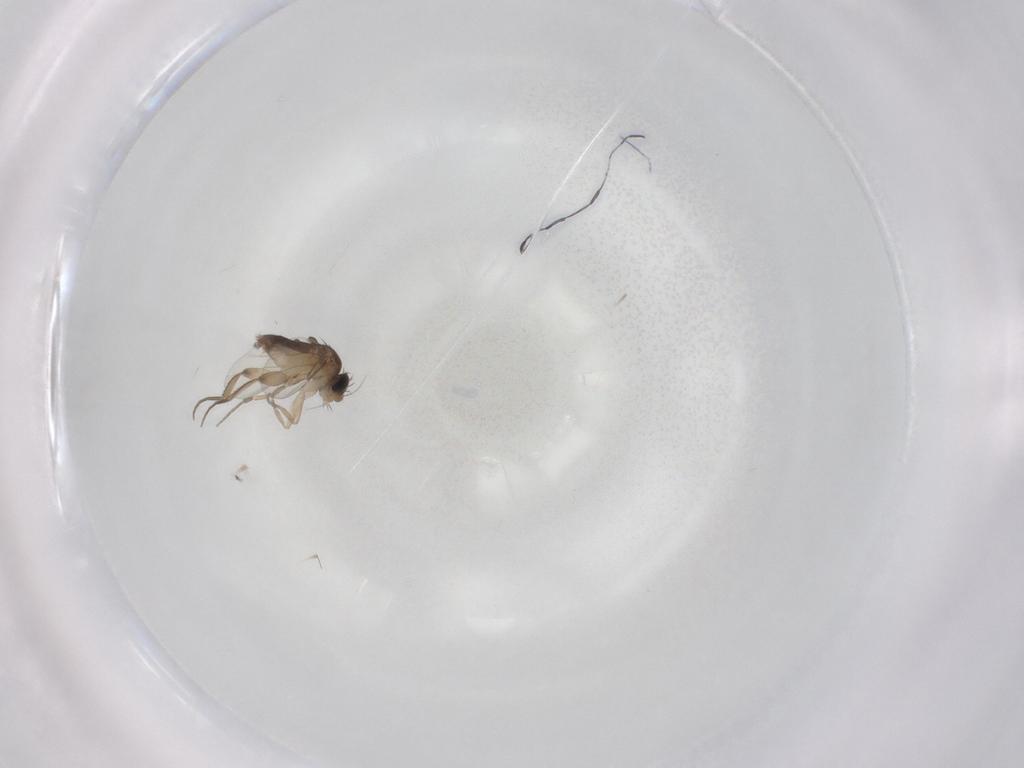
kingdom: Animalia
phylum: Arthropoda
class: Insecta
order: Diptera
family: Phoridae
